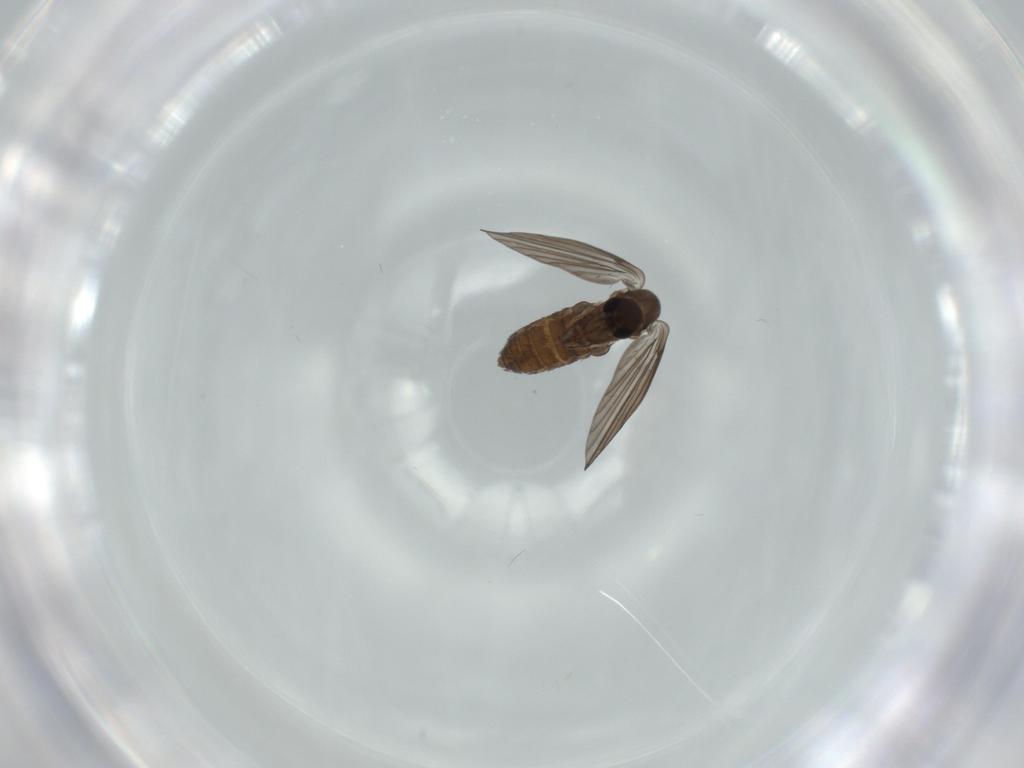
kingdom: Animalia
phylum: Arthropoda
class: Insecta
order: Diptera
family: Psychodidae
